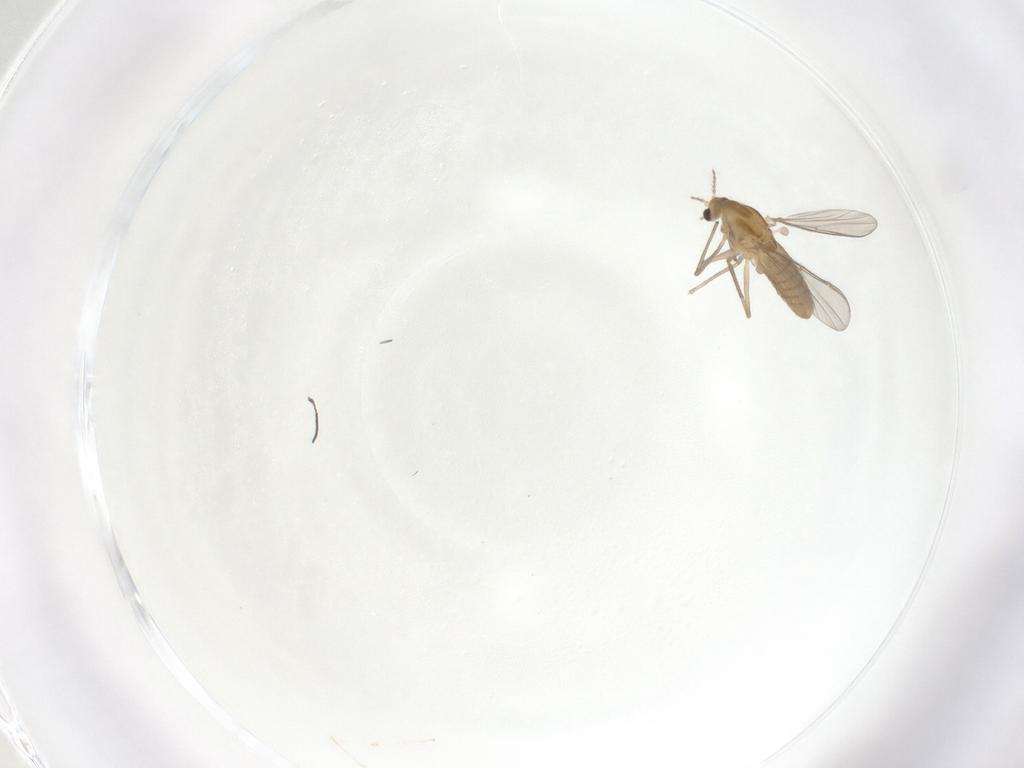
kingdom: Animalia
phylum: Arthropoda
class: Insecta
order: Diptera
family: Chironomidae
